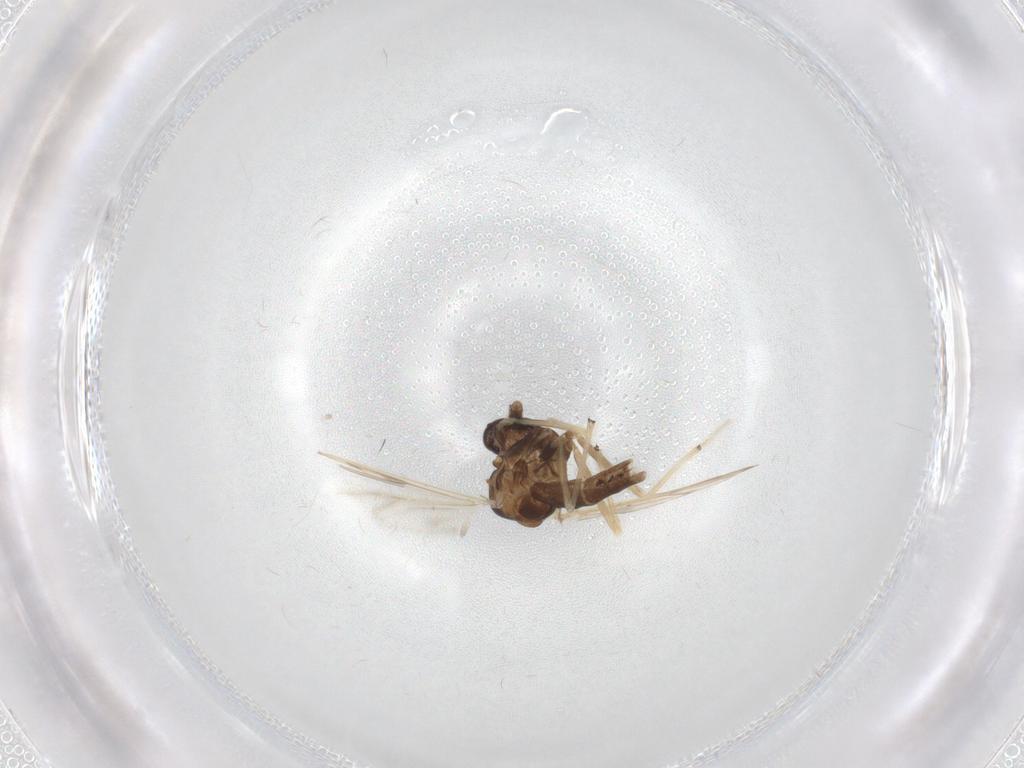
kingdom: Animalia
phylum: Arthropoda
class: Insecta
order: Diptera
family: Chironomidae
